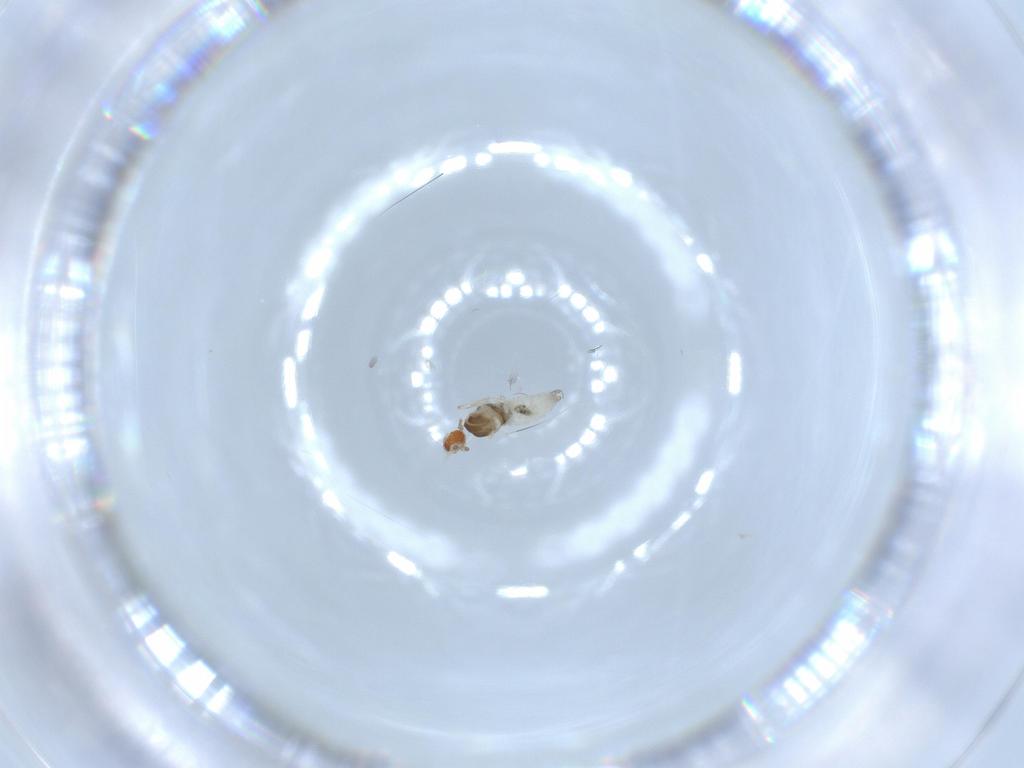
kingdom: Animalia
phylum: Arthropoda
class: Insecta
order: Diptera
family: Cecidomyiidae
